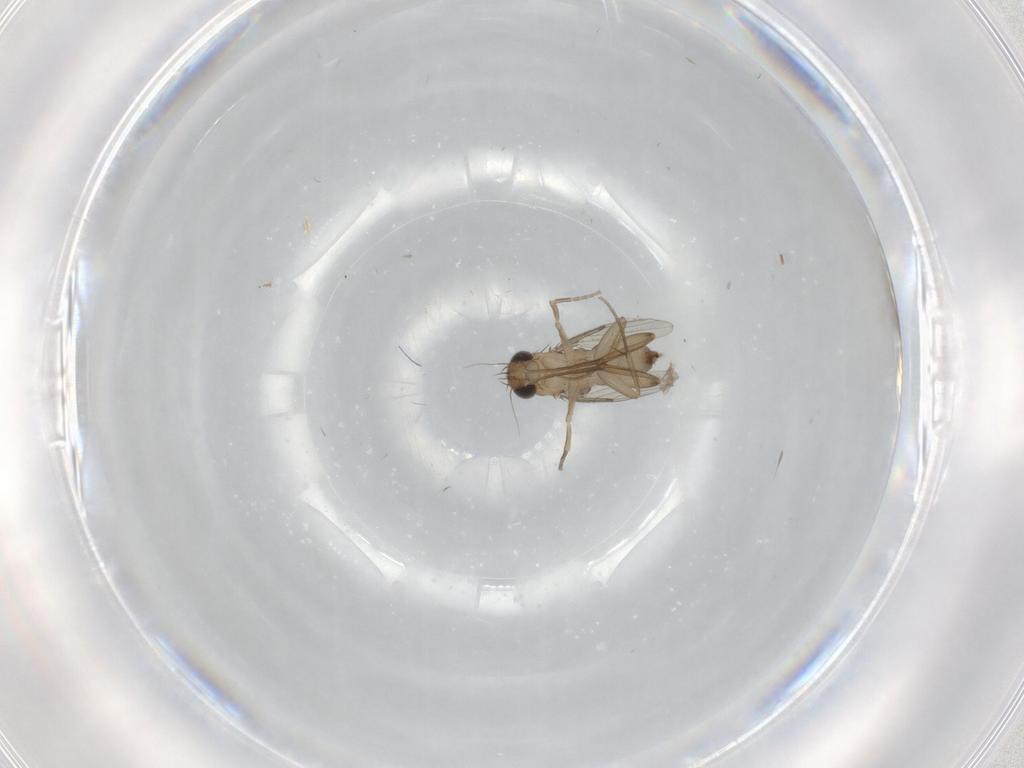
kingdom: Animalia
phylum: Arthropoda
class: Insecta
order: Diptera
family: Phoridae
